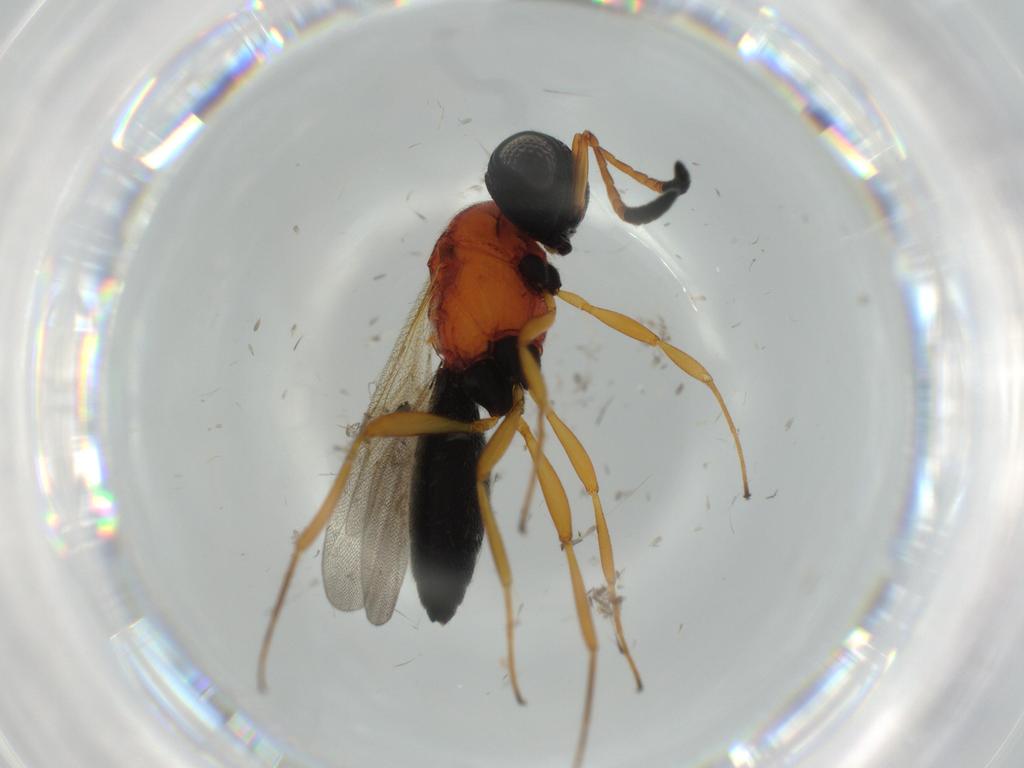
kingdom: Animalia
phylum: Arthropoda
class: Insecta
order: Hymenoptera
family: Scelionidae
